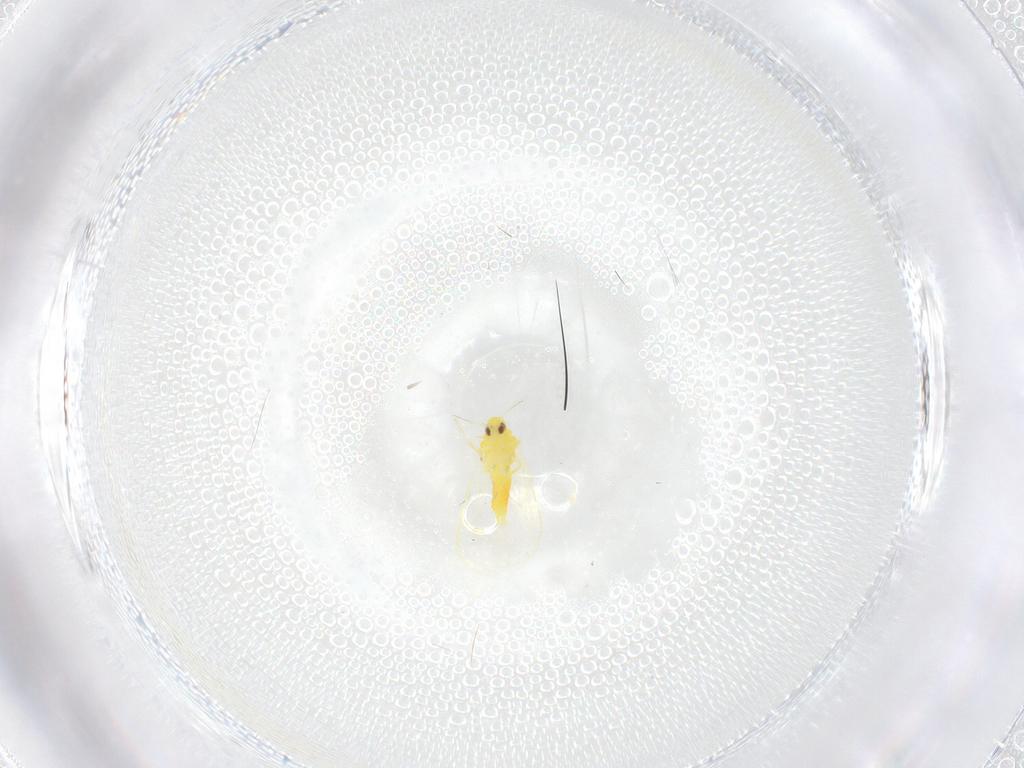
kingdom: Animalia
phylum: Arthropoda
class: Insecta
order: Hemiptera
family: Aleyrodidae
